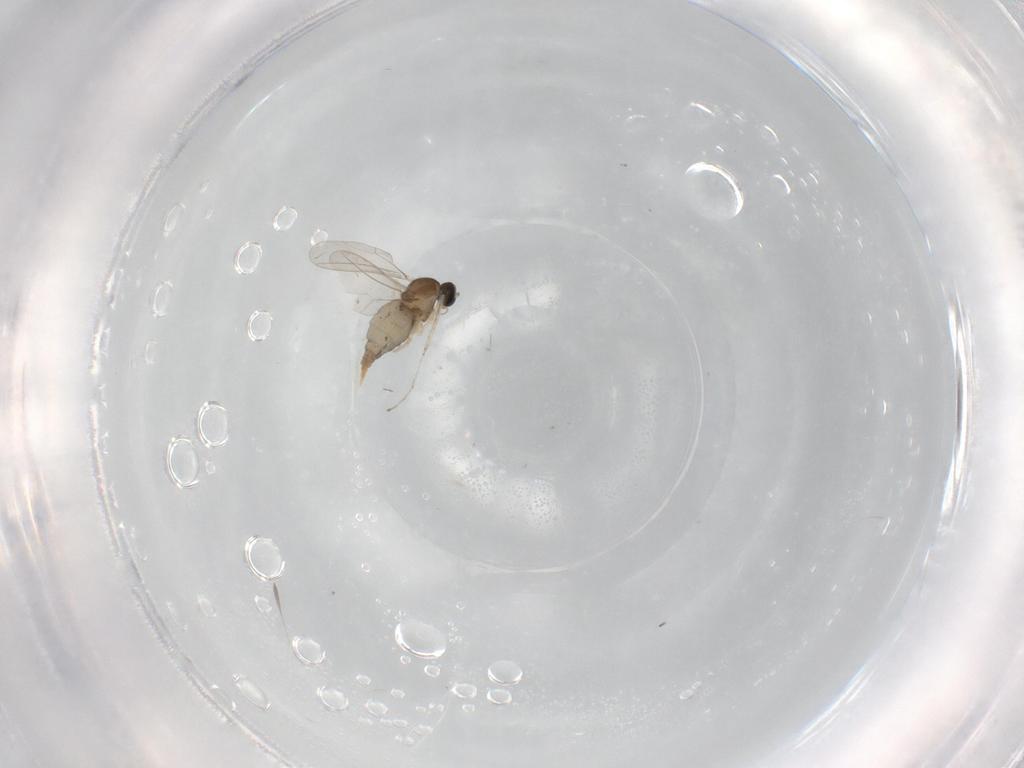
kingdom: Animalia
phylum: Arthropoda
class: Insecta
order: Diptera
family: Cecidomyiidae
